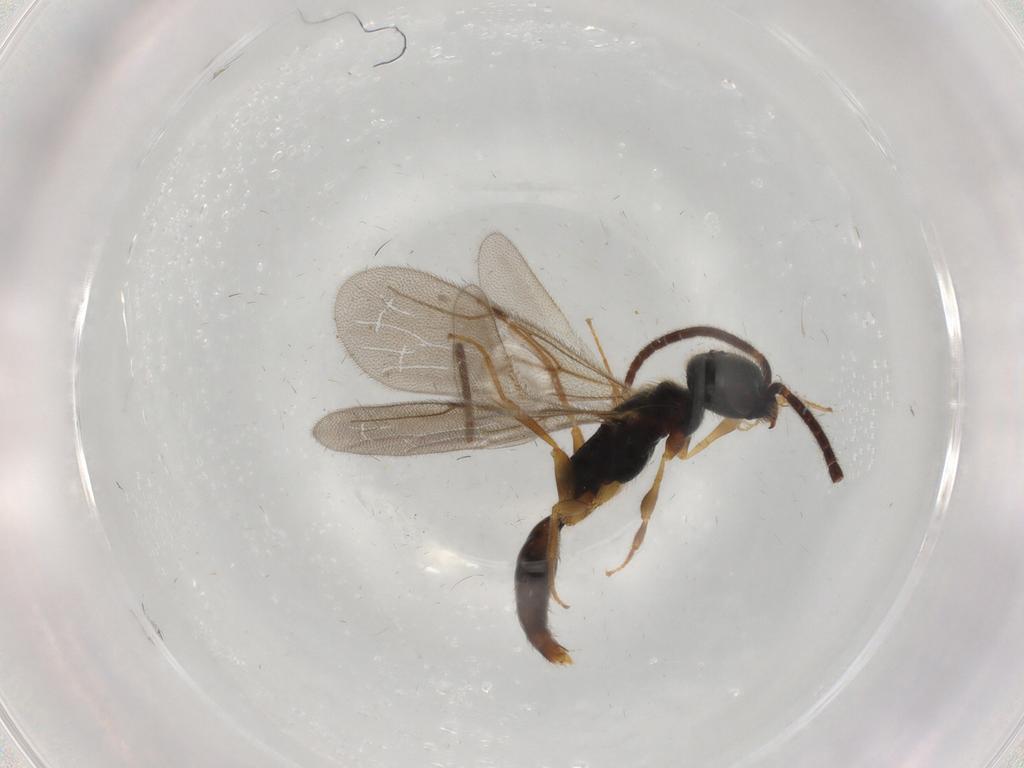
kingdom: Animalia
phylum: Arthropoda
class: Insecta
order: Hymenoptera
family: Bethylidae
